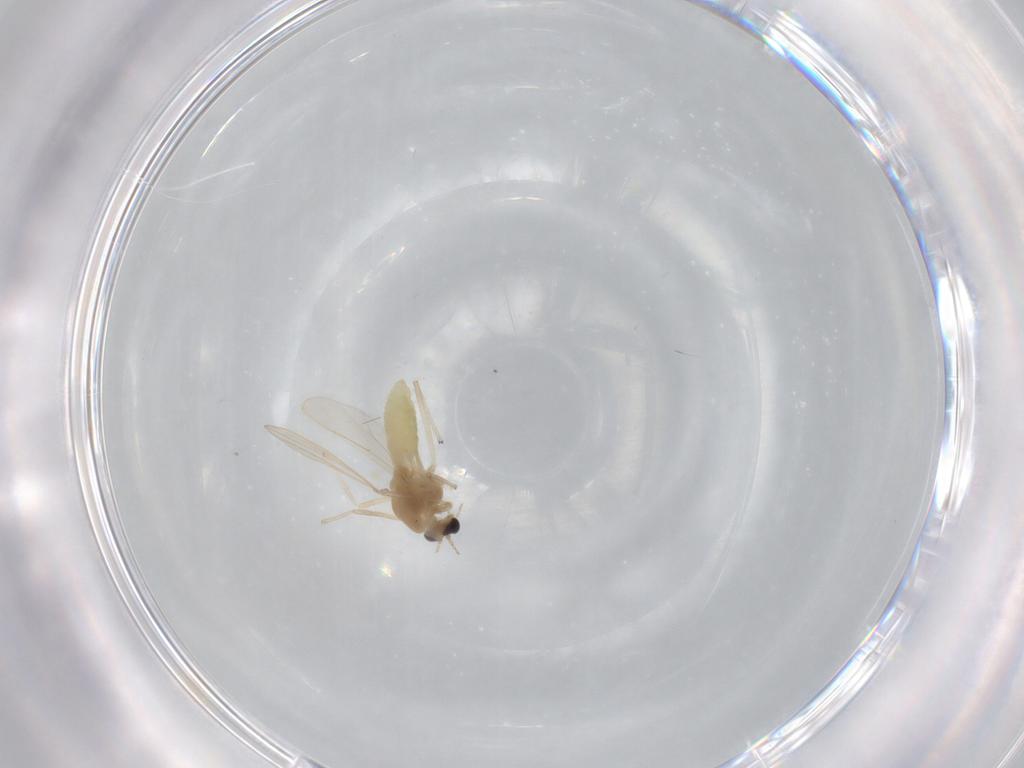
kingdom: Animalia
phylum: Arthropoda
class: Insecta
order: Diptera
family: Chironomidae
